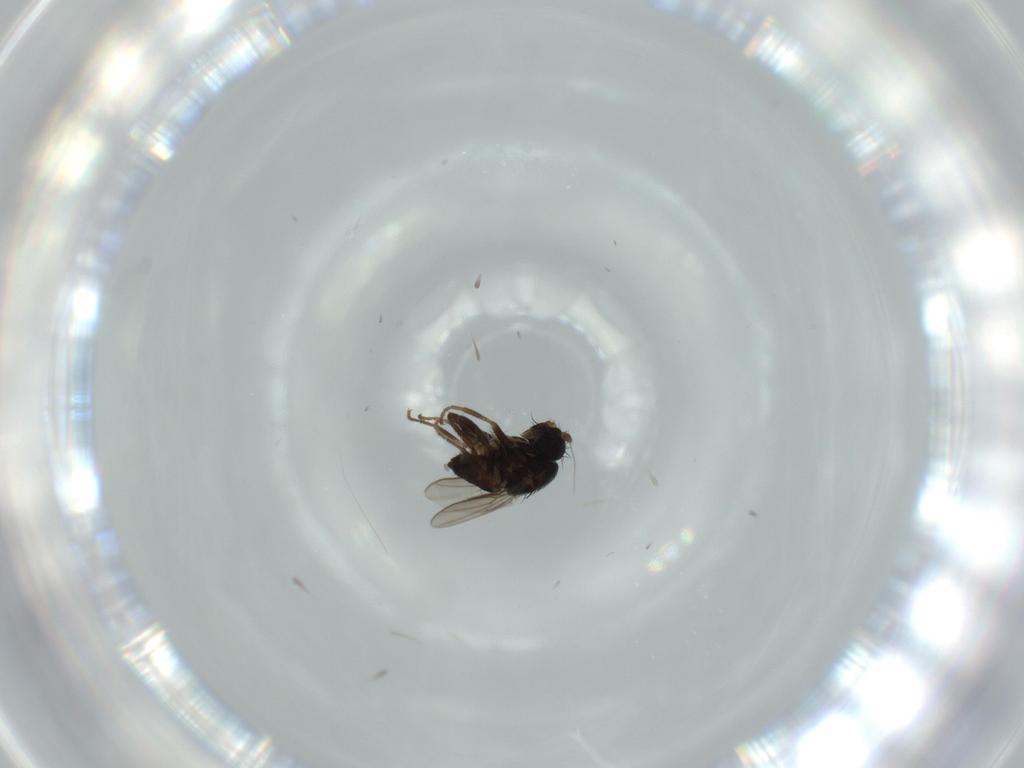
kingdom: Animalia
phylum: Arthropoda
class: Insecta
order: Diptera
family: Sphaeroceridae
